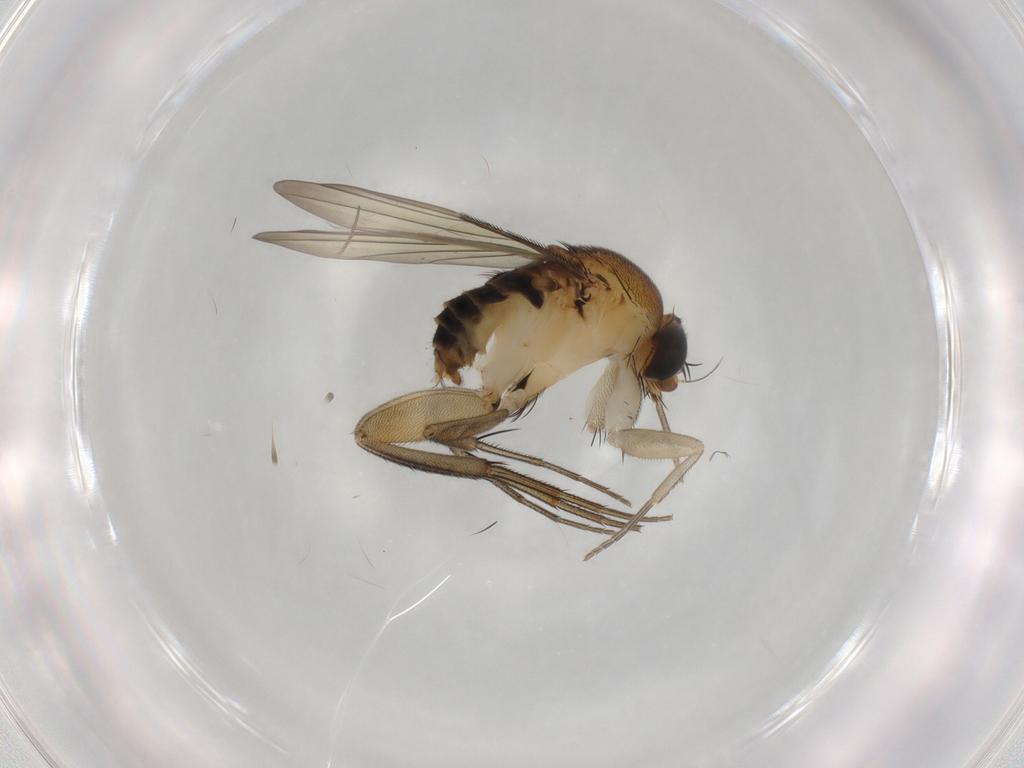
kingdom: Animalia
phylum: Arthropoda
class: Insecta
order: Diptera
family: Phoridae
